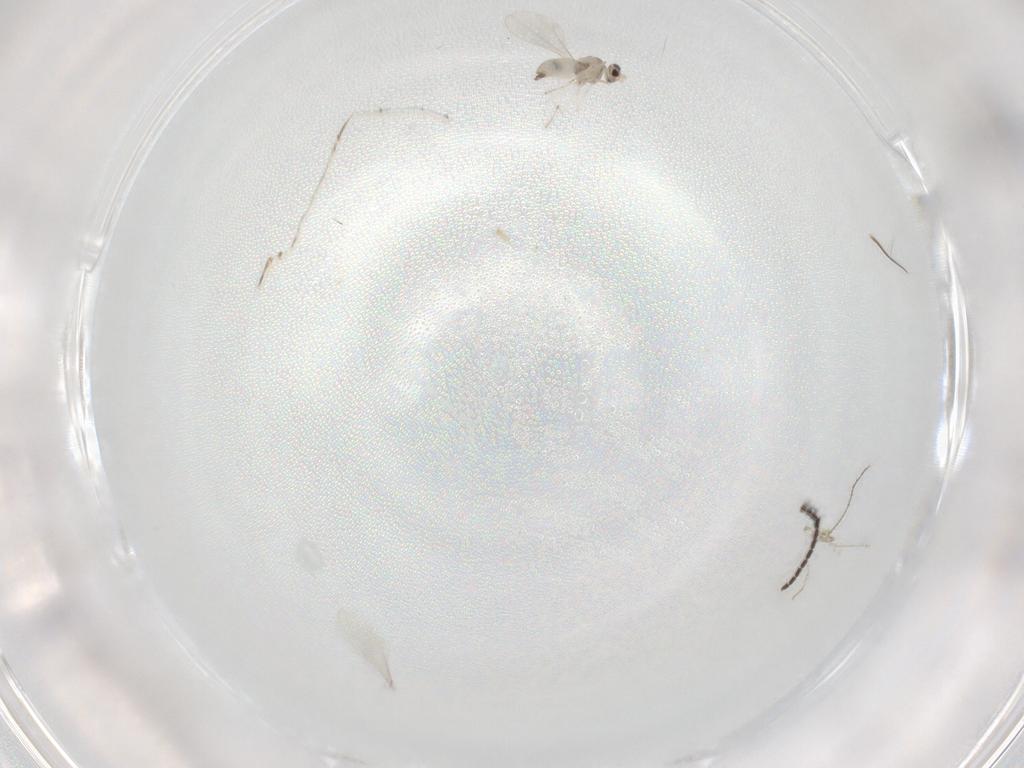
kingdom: Animalia
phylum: Arthropoda
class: Insecta
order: Diptera
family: Cecidomyiidae
